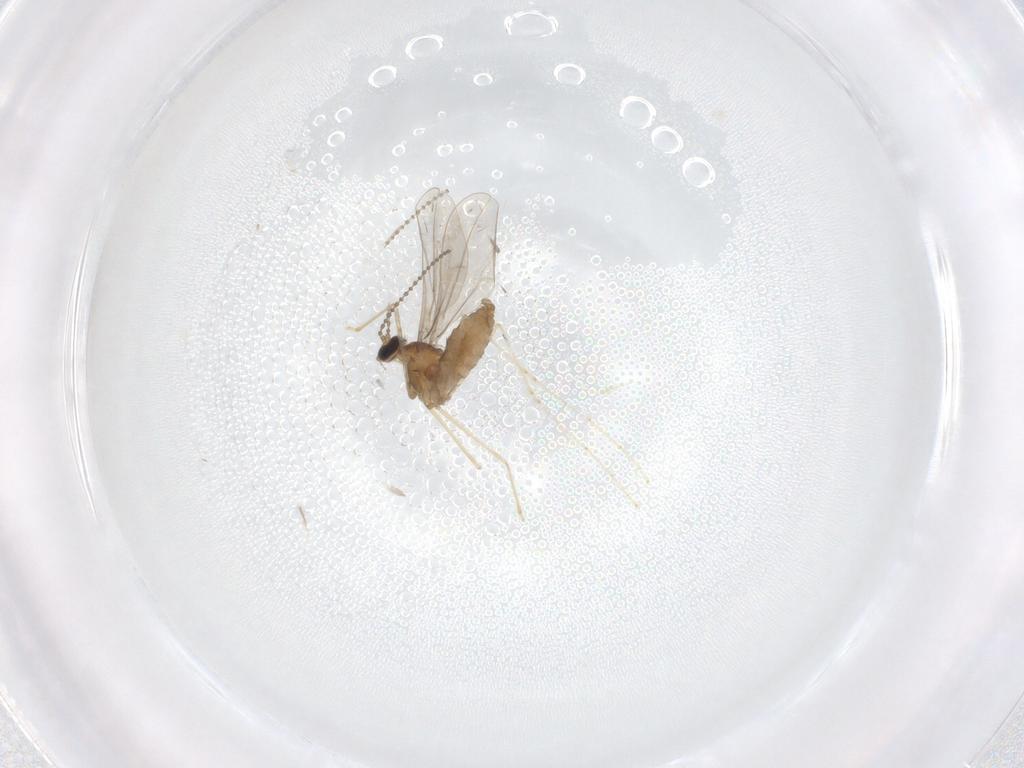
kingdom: Animalia
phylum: Arthropoda
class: Insecta
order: Diptera
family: Cecidomyiidae
